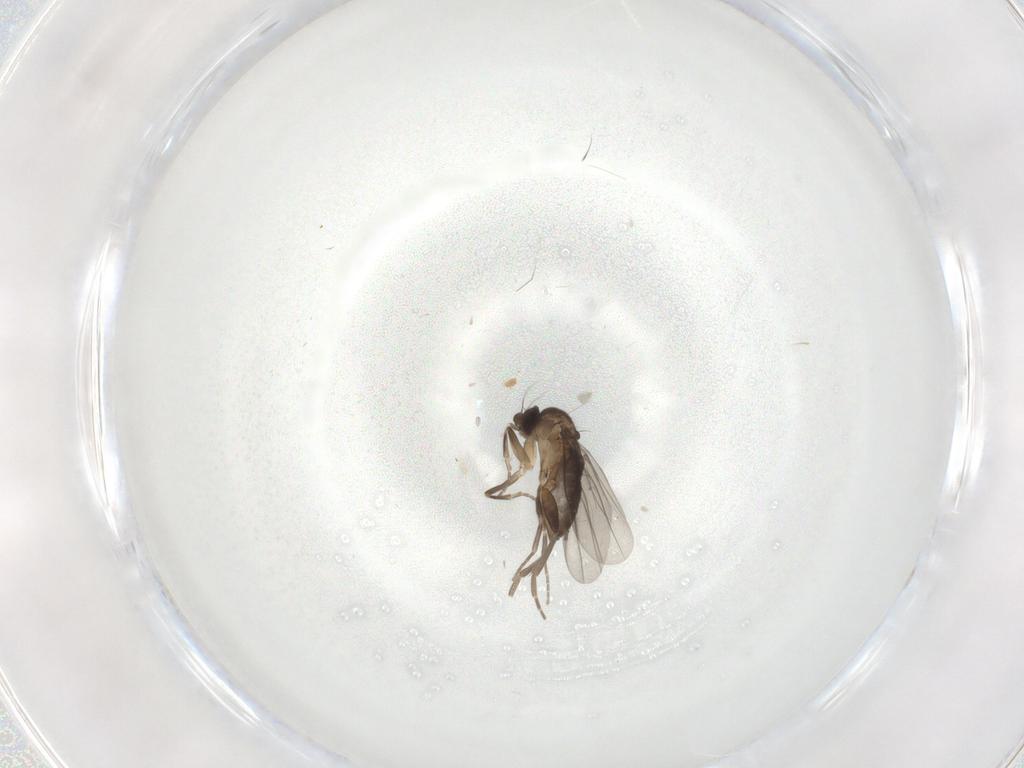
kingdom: Animalia
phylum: Arthropoda
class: Insecta
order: Diptera
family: Phoridae
